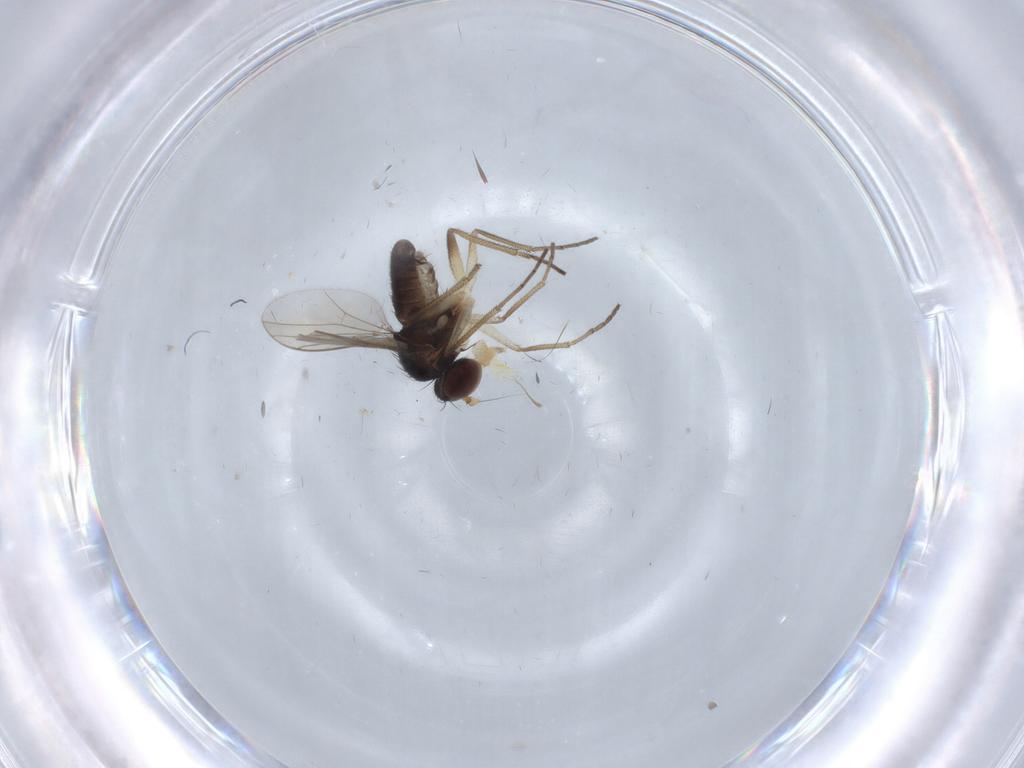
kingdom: Animalia
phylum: Arthropoda
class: Insecta
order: Diptera
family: Dolichopodidae
